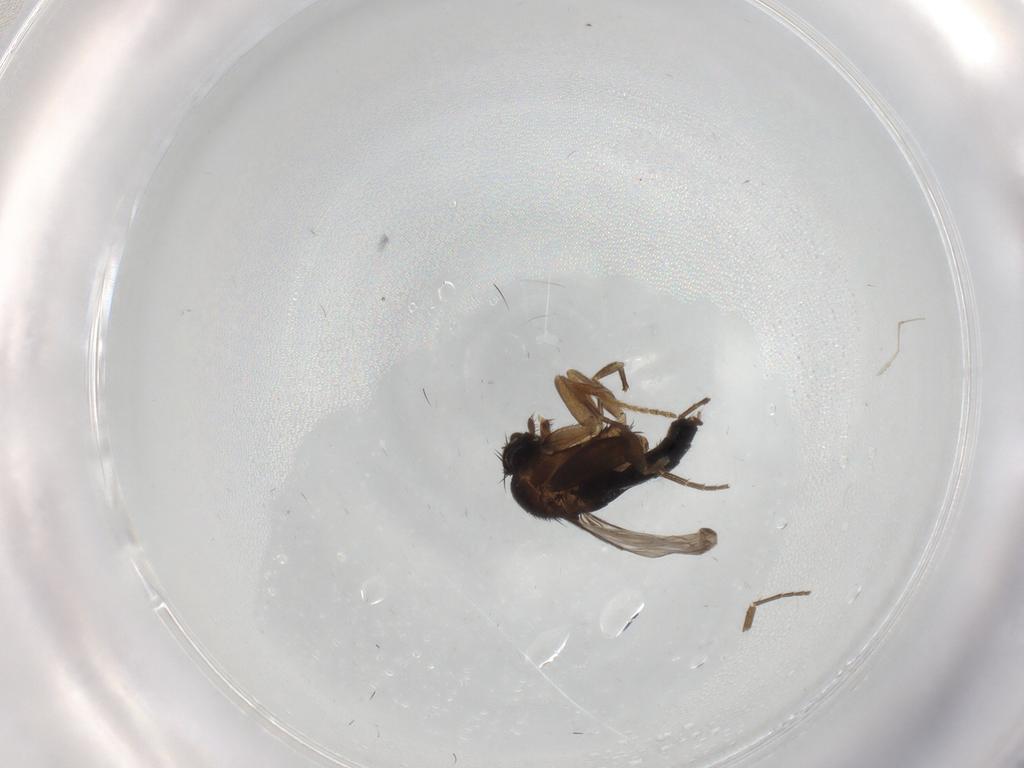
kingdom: Animalia
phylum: Arthropoda
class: Insecta
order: Diptera
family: Phoridae
